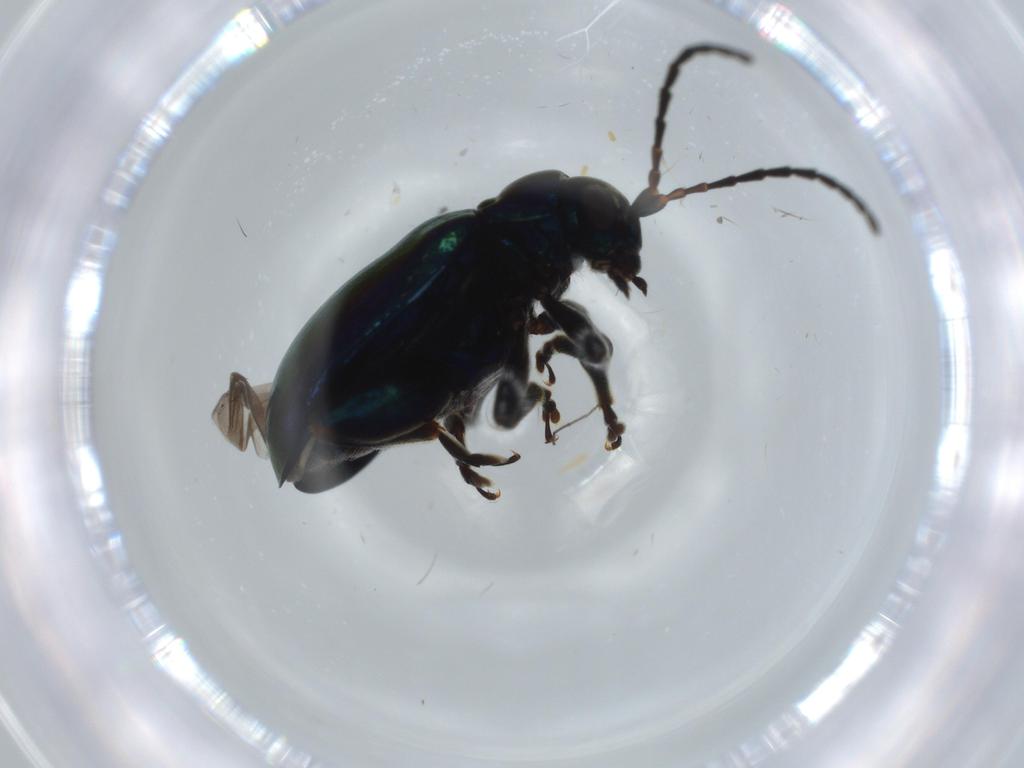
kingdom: Animalia
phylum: Arthropoda
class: Insecta
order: Coleoptera
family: Chrysomelidae
